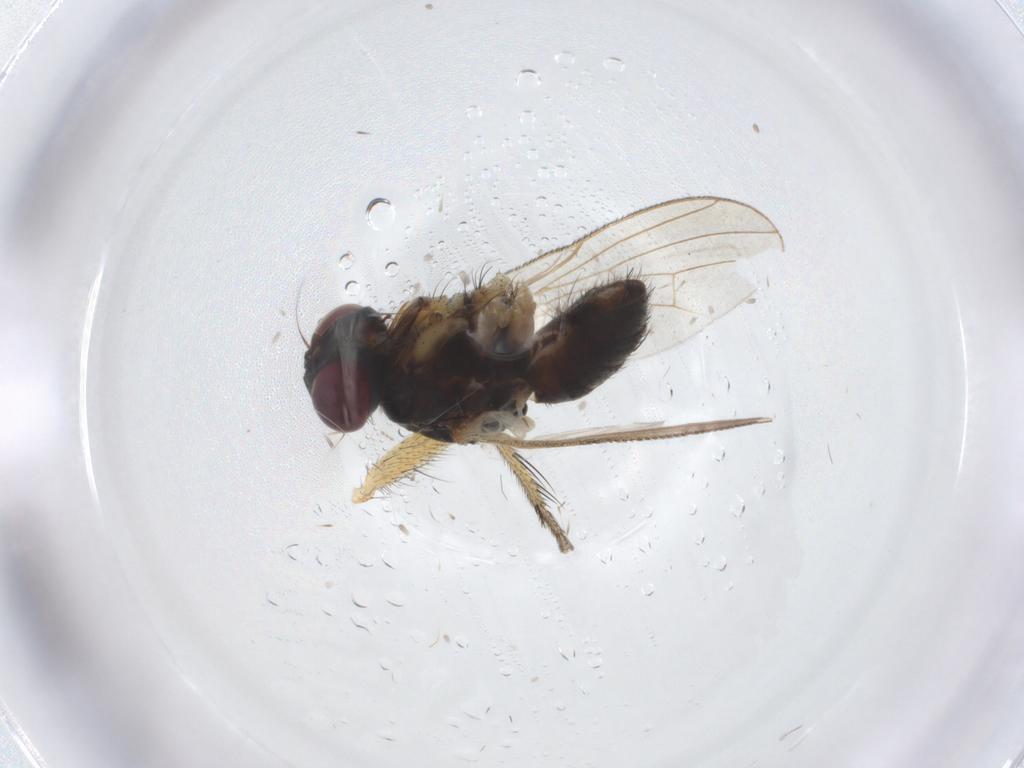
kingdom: Animalia
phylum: Arthropoda
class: Insecta
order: Diptera
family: Muscidae
